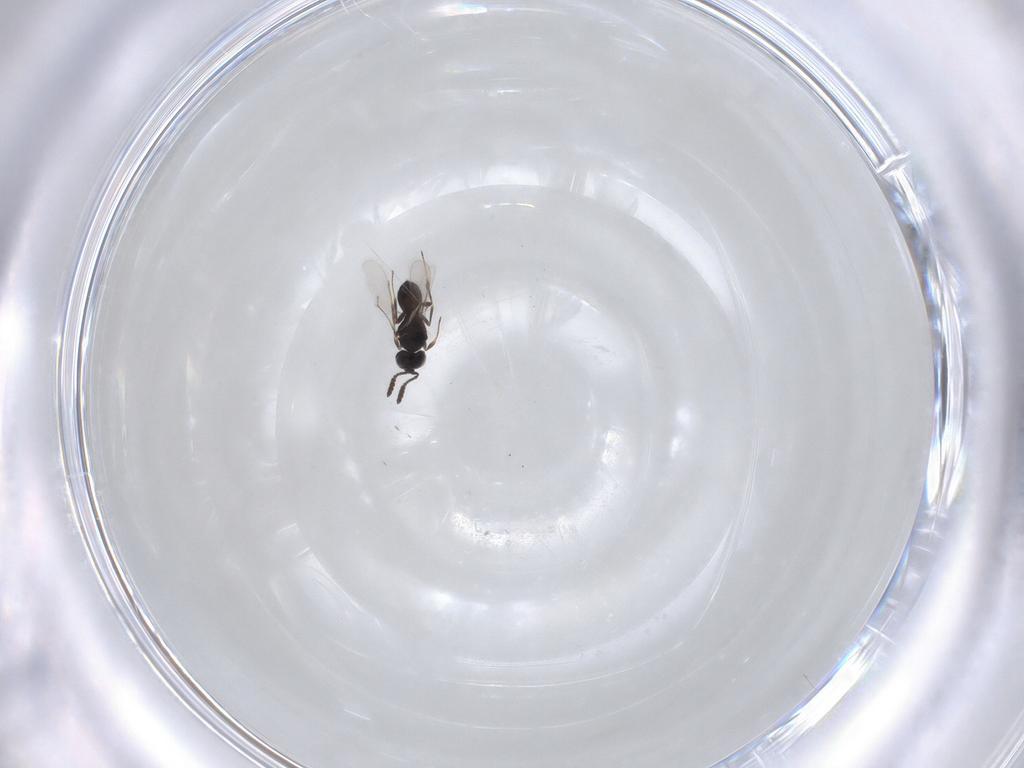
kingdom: Animalia
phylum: Arthropoda
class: Insecta
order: Hymenoptera
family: Scelionidae
